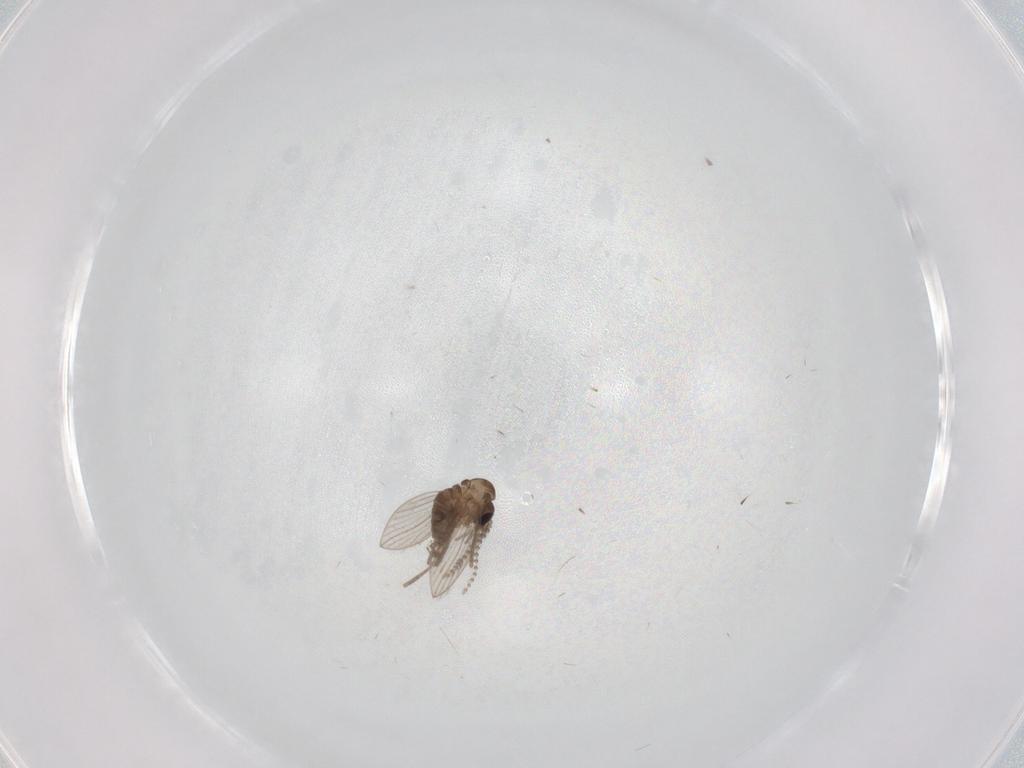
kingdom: Animalia
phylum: Arthropoda
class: Insecta
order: Diptera
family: Psychodidae
